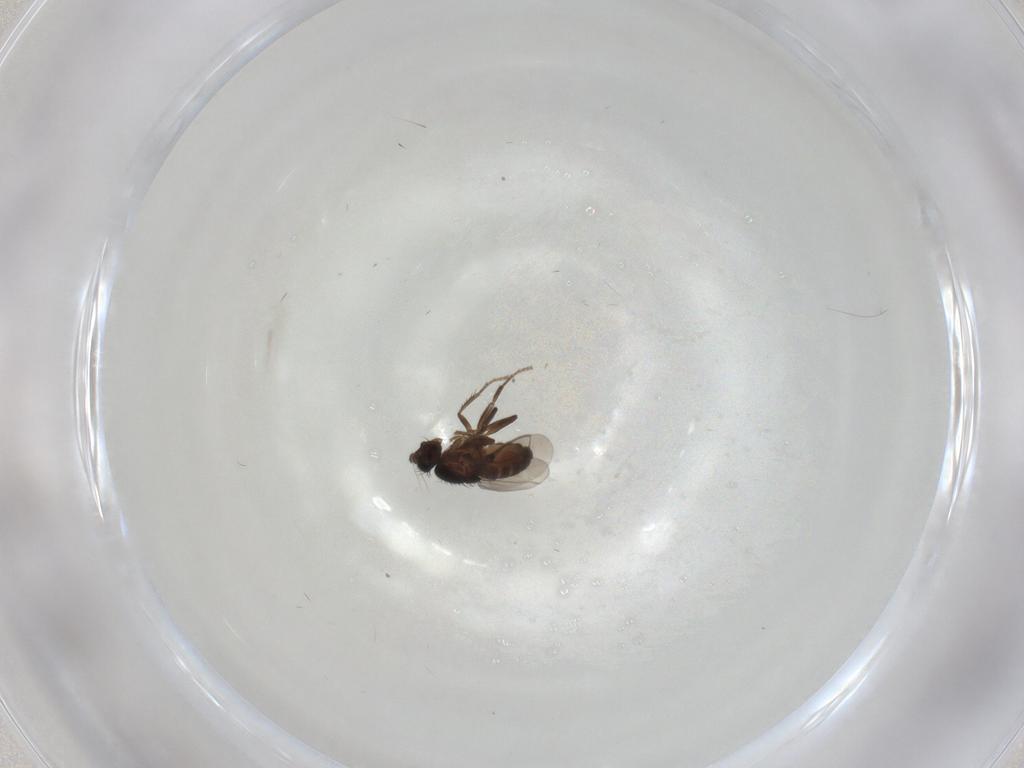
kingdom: Animalia
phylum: Arthropoda
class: Insecta
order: Diptera
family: Sphaeroceridae
